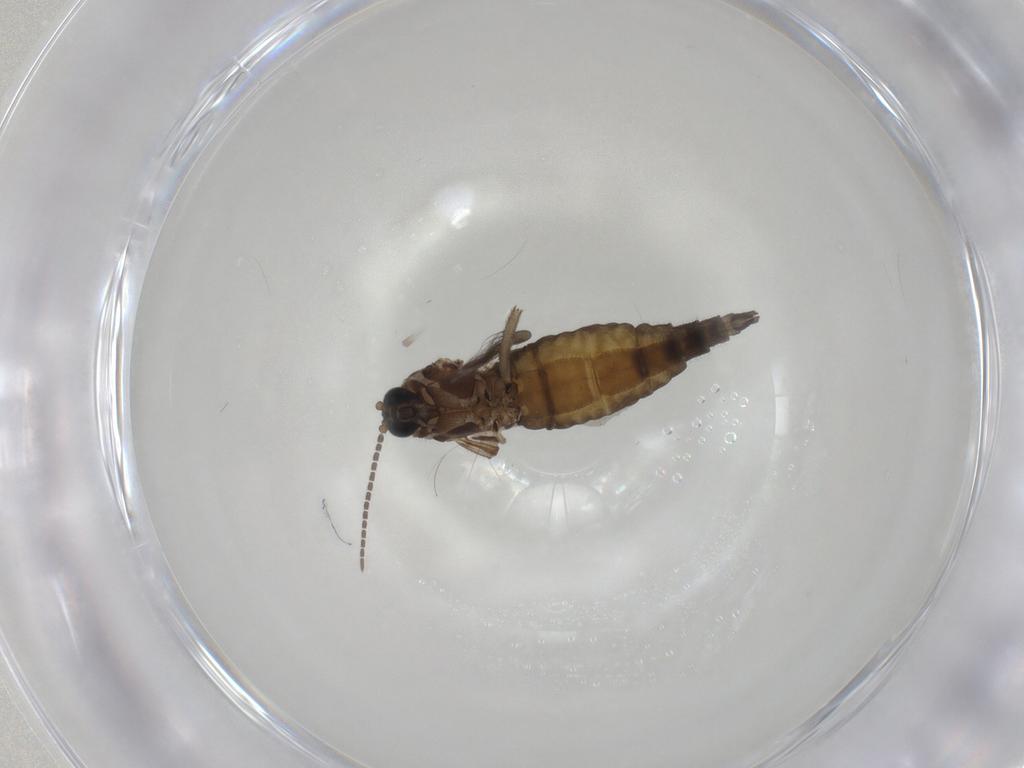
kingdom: Animalia
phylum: Arthropoda
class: Insecta
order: Diptera
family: Sciaridae
